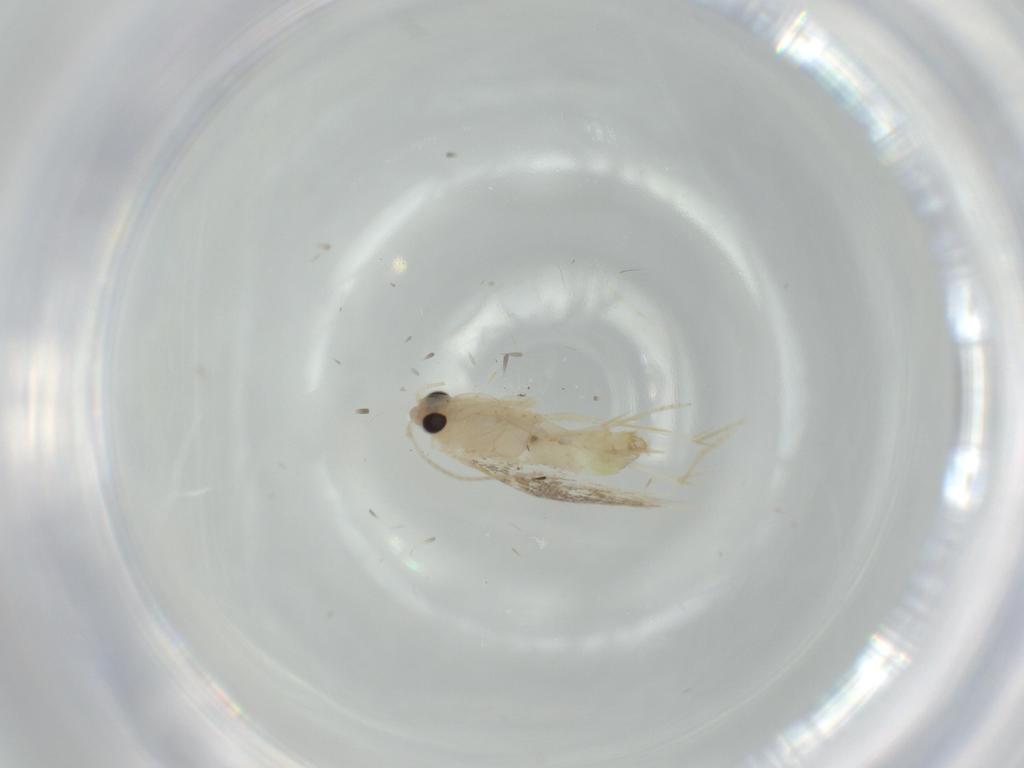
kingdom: Animalia
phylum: Arthropoda
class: Insecta
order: Lepidoptera
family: Bucculatricidae
